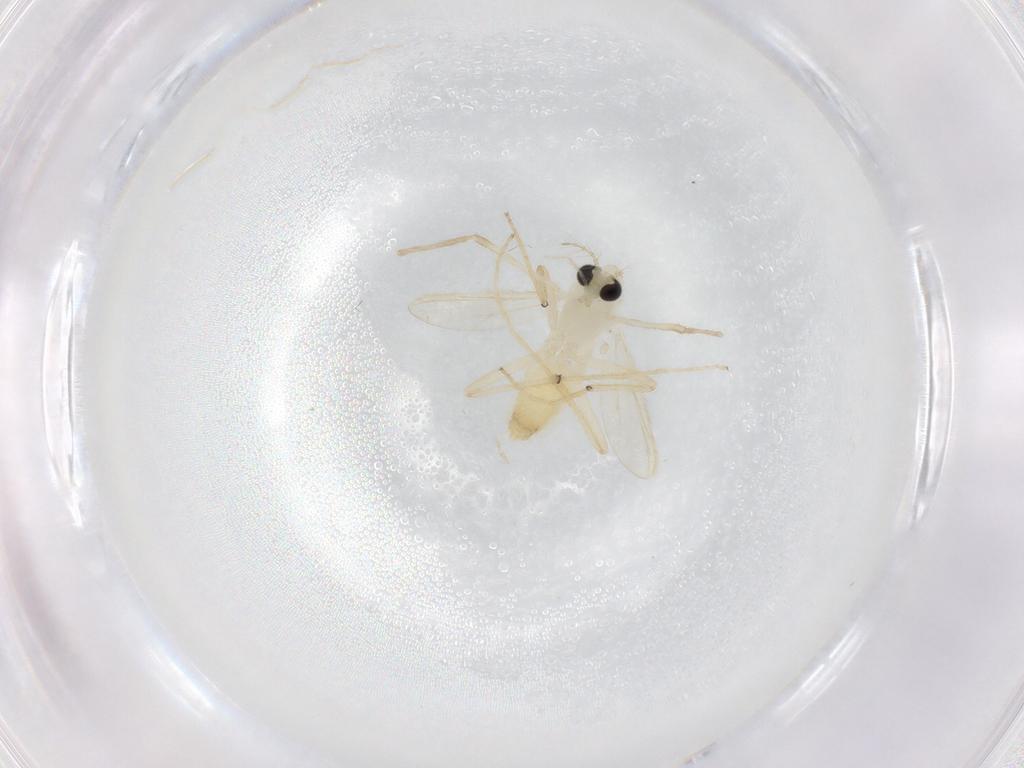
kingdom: Animalia
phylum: Arthropoda
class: Insecta
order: Diptera
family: Chironomidae
